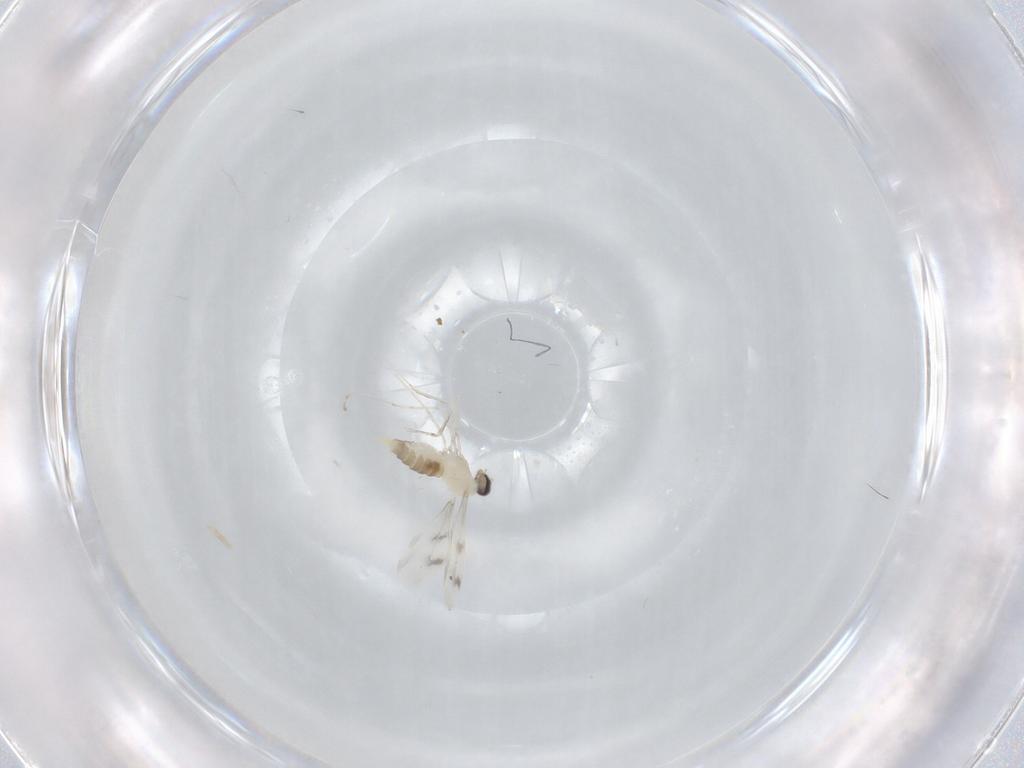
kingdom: Animalia
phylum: Arthropoda
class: Insecta
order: Diptera
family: Cecidomyiidae
